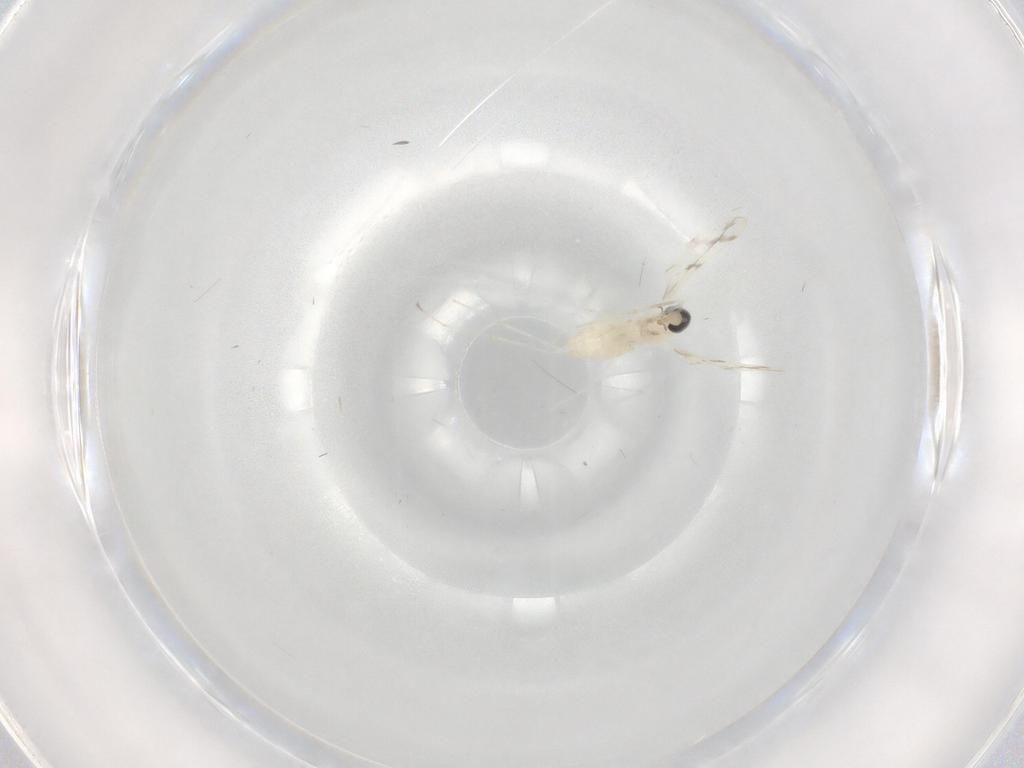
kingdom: Animalia
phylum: Arthropoda
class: Insecta
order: Diptera
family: Cecidomyiidae
